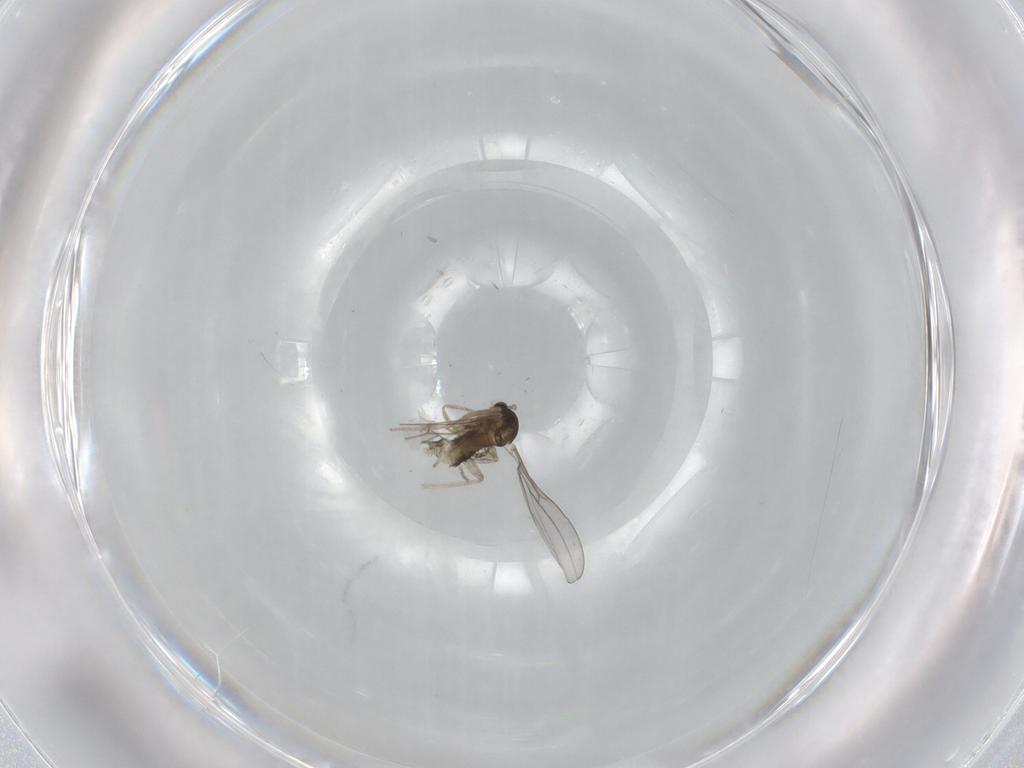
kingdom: Animalia
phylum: Arthropoda
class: Insecta
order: Diptera
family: Cecidomyiidae
